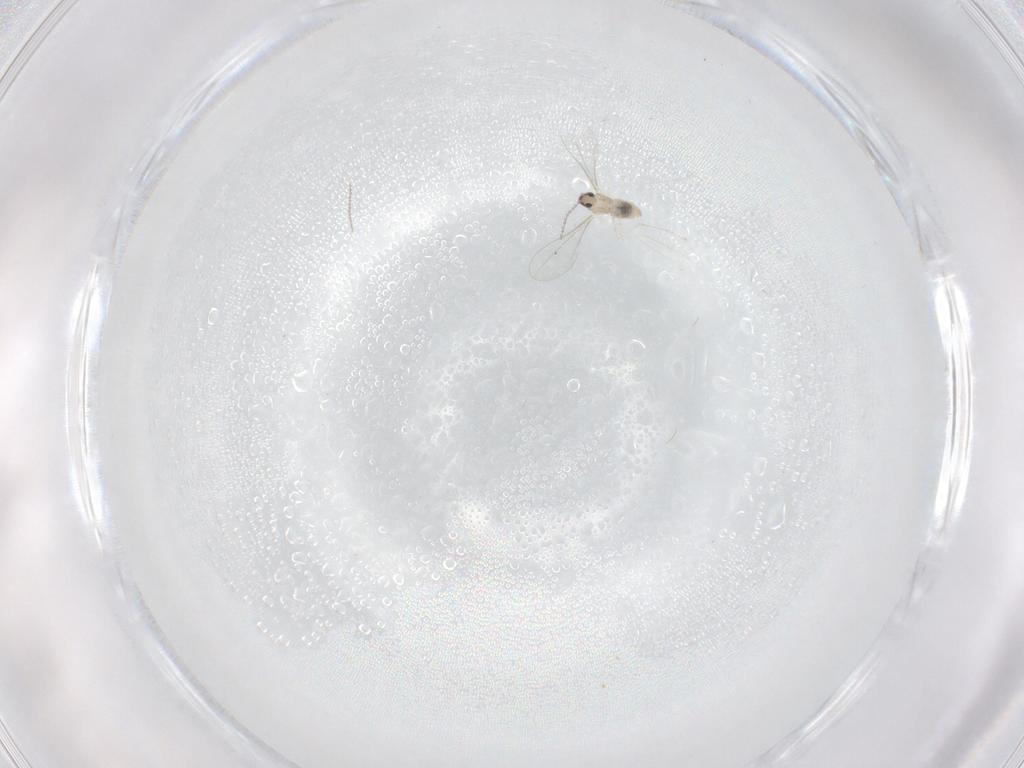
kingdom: Animalia
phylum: Arthropoda
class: Insecta
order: Diptera
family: Cecidomyiidae
